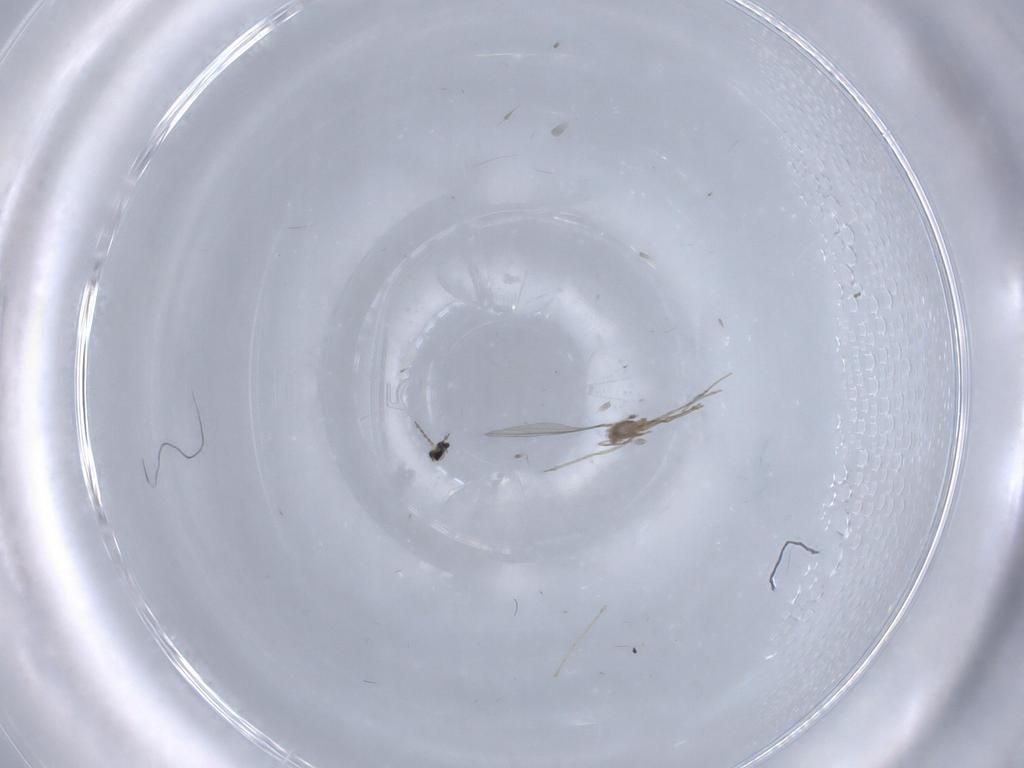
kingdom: Animalia
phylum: Arthropoda
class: Insecta
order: Diptera
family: Cecidomyiidae
